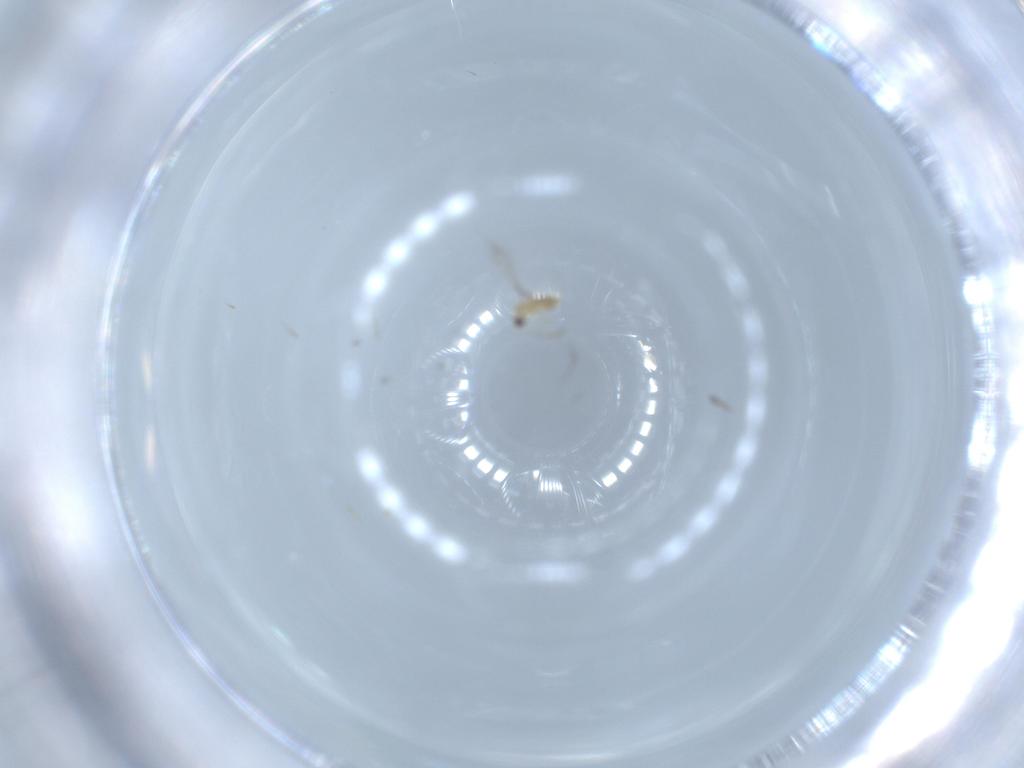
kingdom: Animalia
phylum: Arthropoda
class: Insecta
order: Hymenoptera
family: Mymaridae
